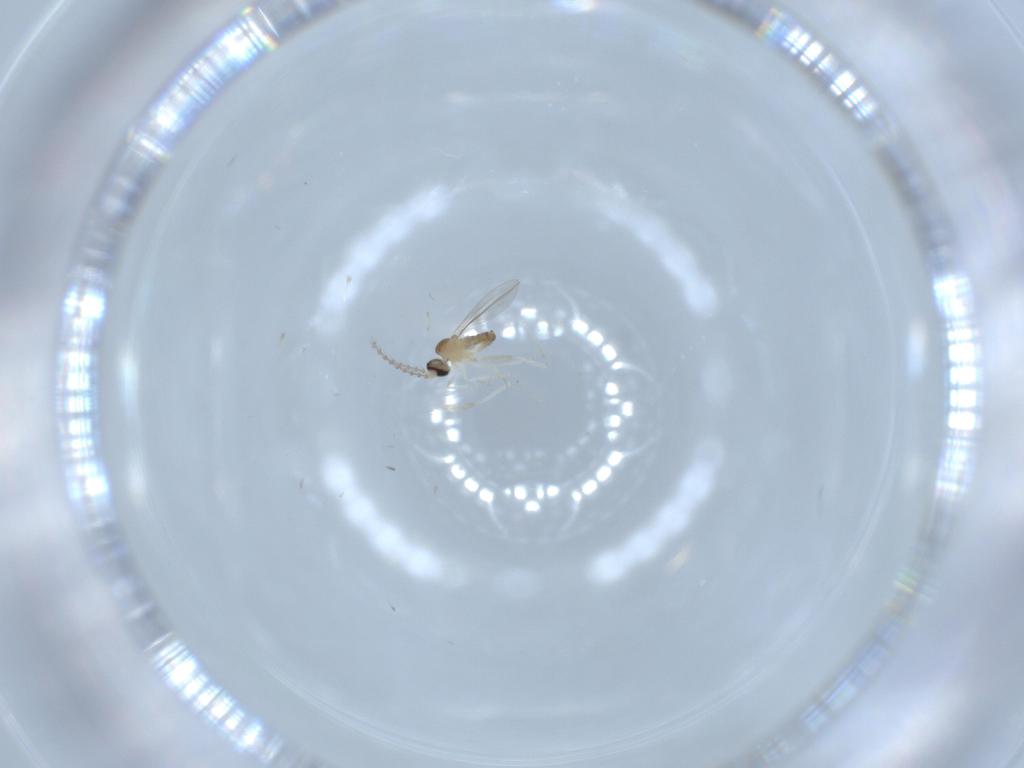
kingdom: Animalia
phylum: Arthropoda
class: Insecta
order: Diptera
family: Cecidomyiidae
